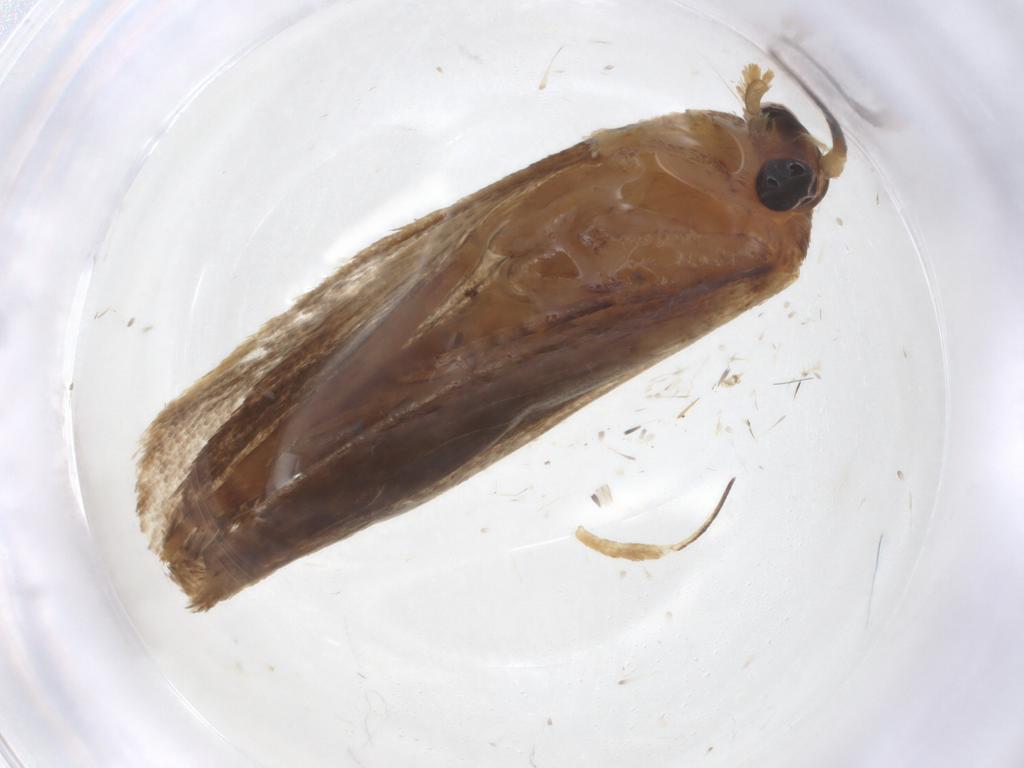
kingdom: Animalia
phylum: Arthropoda
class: Insecta
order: Lepidoptera
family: Tineidae
